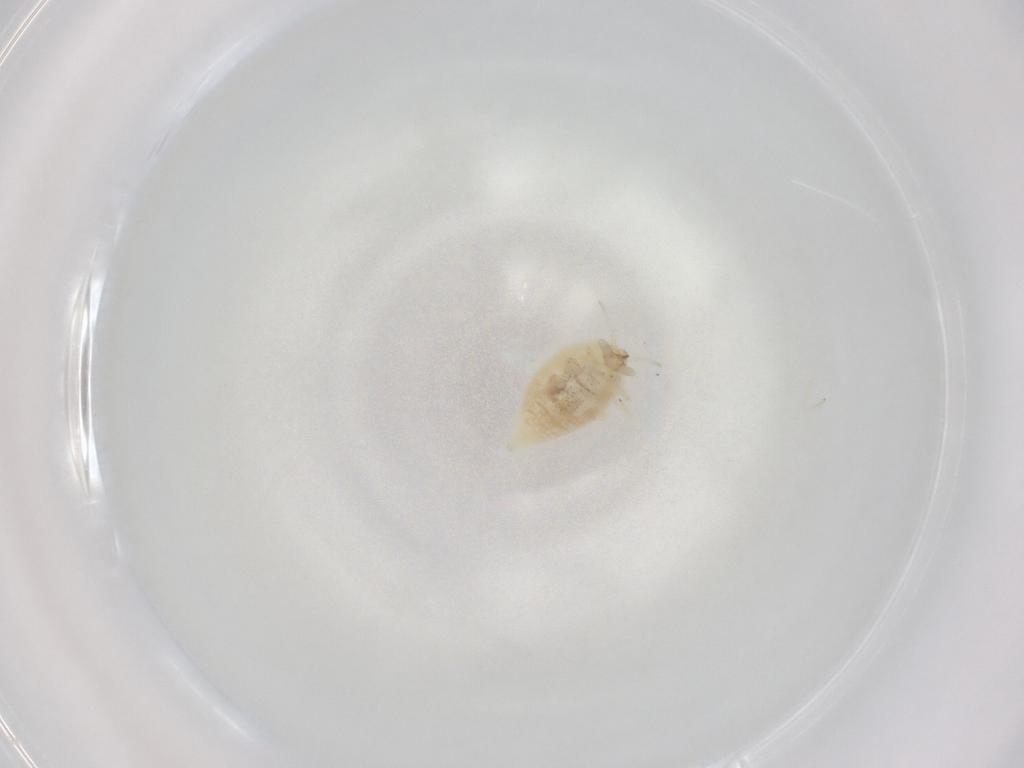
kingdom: Animalia
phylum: Arthropoda
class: Insecta
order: Neuroptera
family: Coniopterygidae
